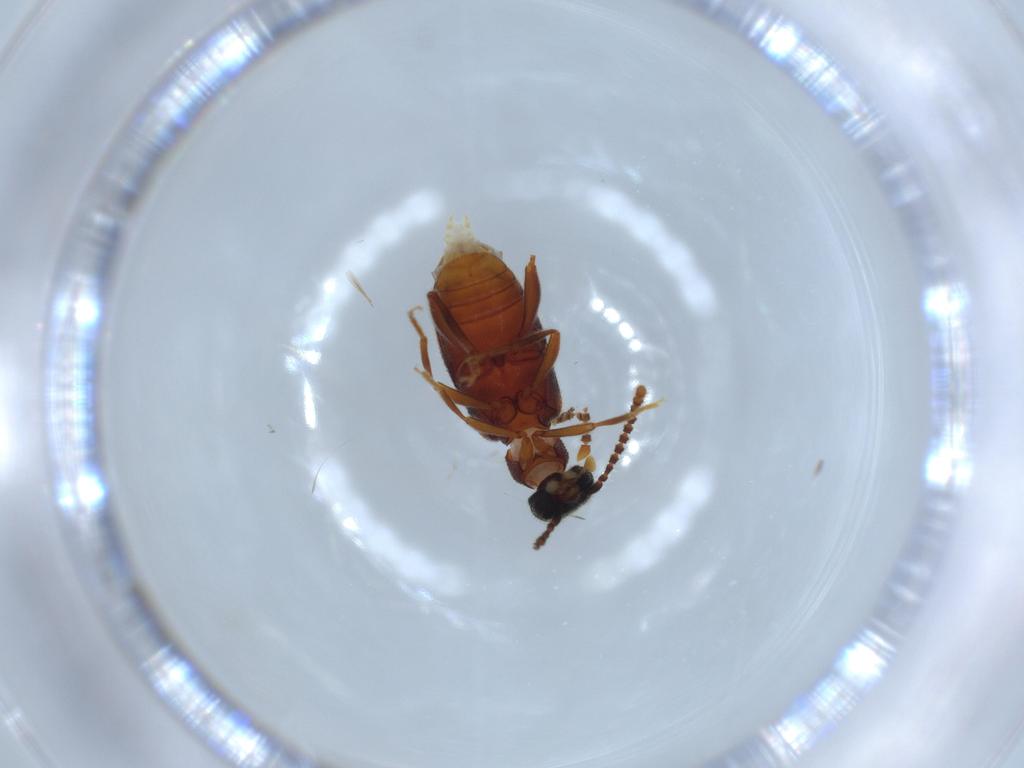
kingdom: Animalia
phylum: Arthropoda
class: Insecta
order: Coleoptera
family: Aderidae
